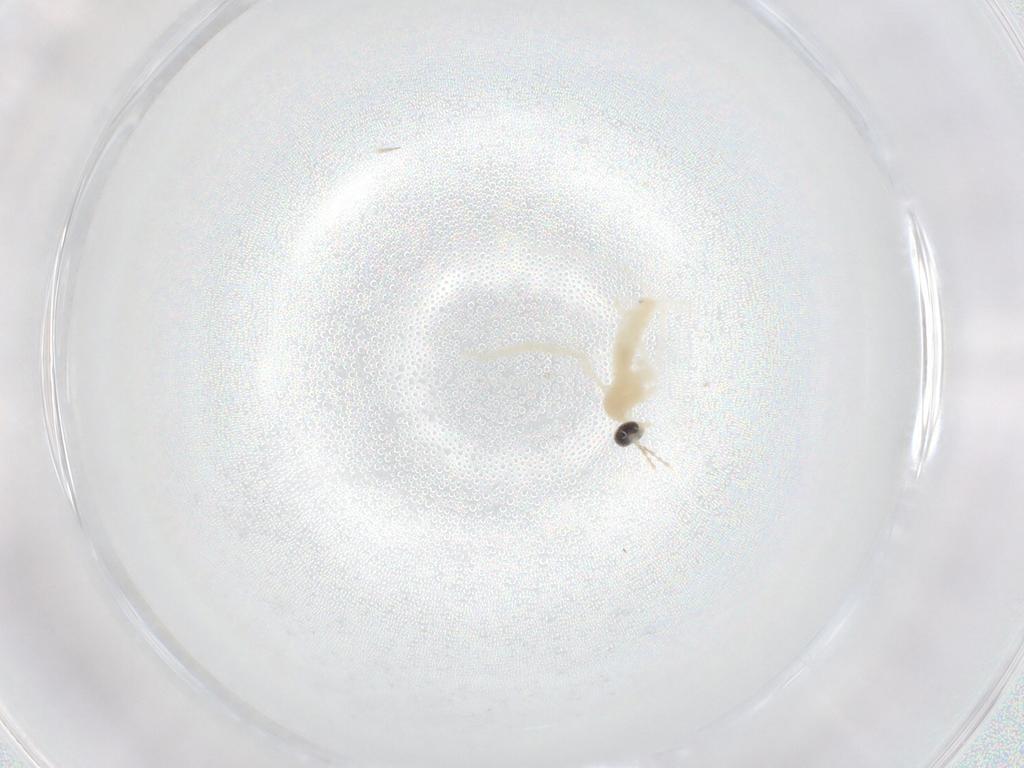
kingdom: Animalia
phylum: Arthropoda
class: Insecta
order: Diptera
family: Cecidomyiidae
